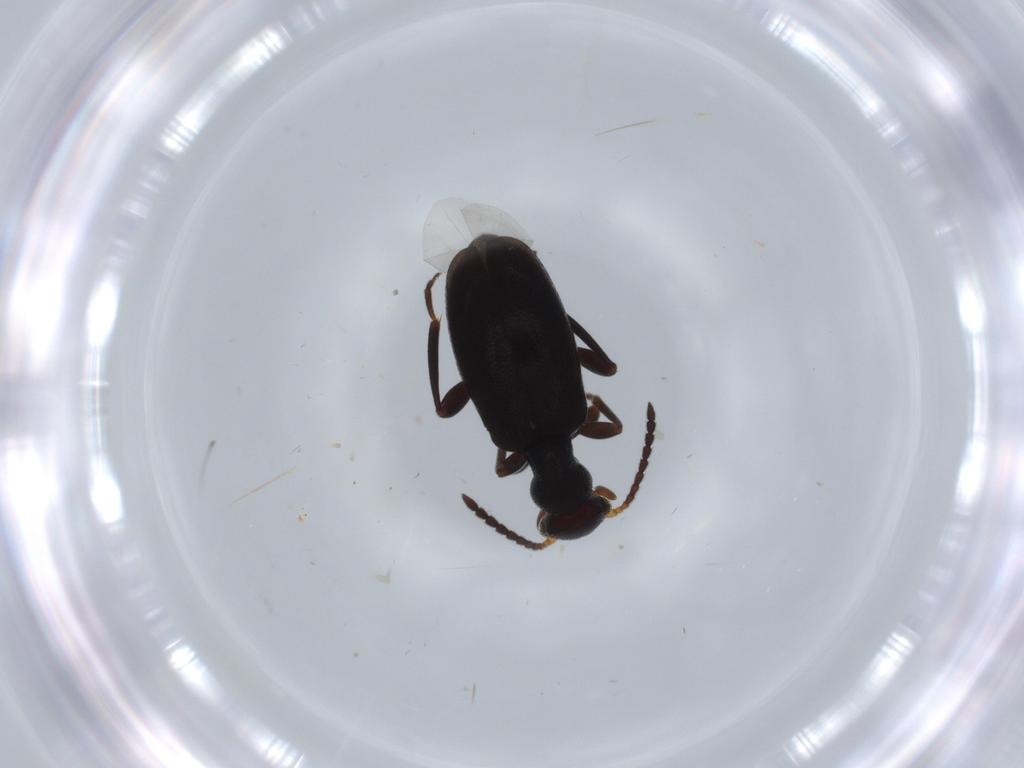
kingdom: Animalia
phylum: Arthropoda
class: Insecta
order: Coleoptera
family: Anthicidae
